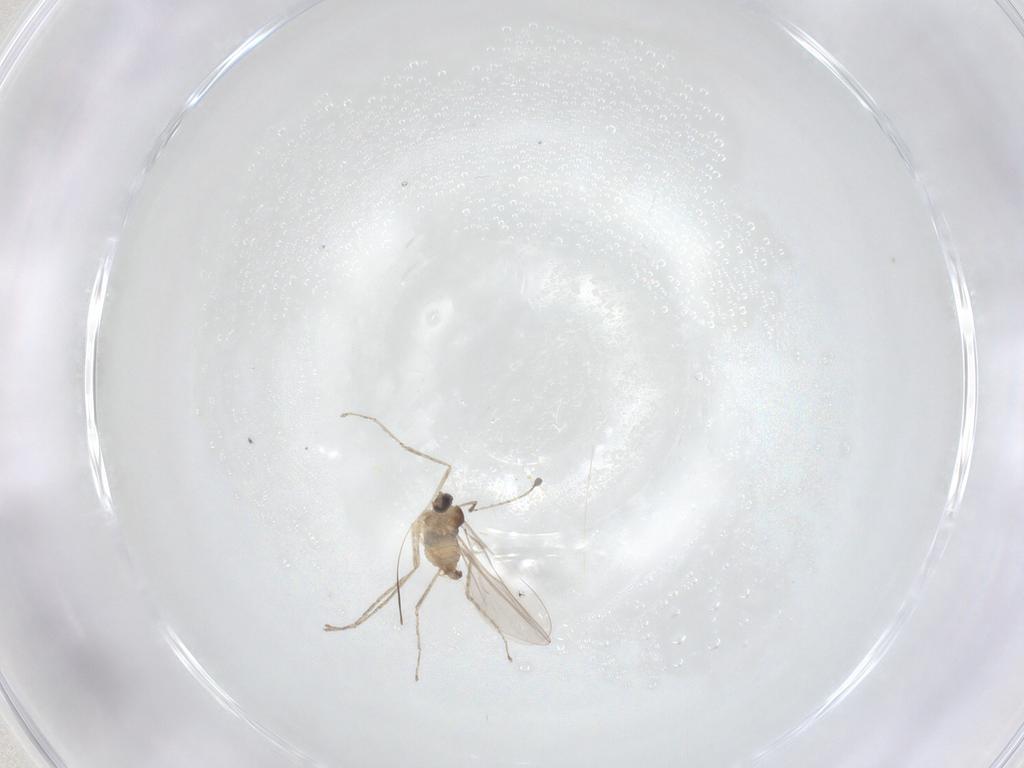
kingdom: Animalia
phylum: Arthropoda
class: Insecta
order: Diptera
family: Cecidomyiidae
